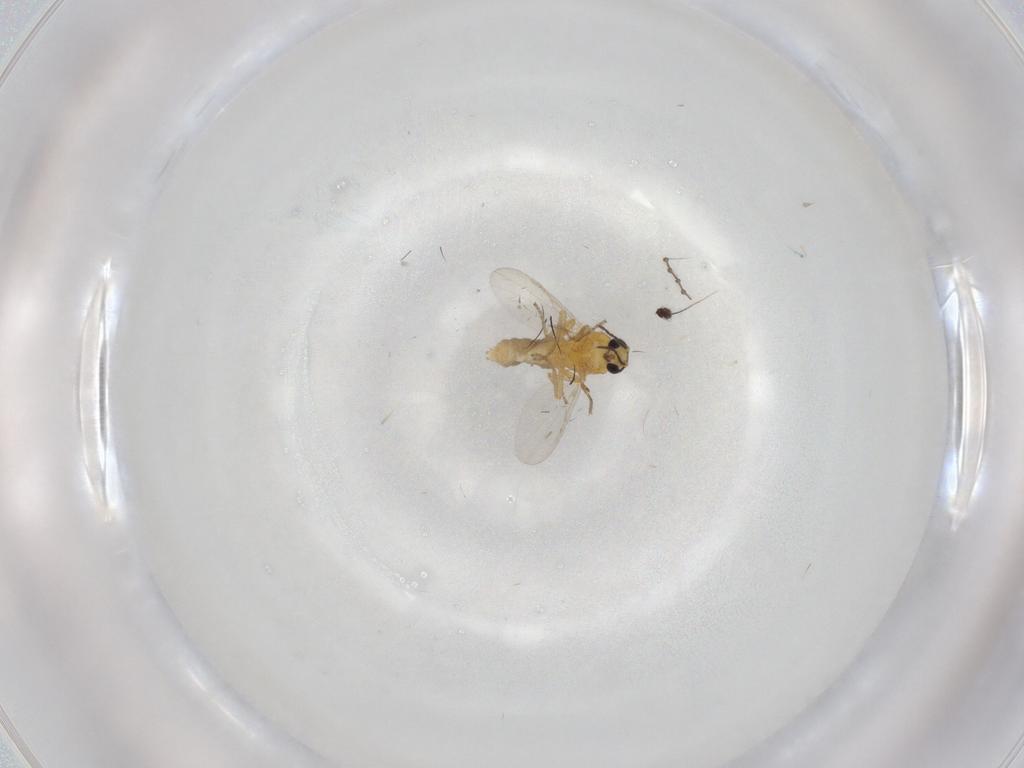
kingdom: Animalia
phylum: Arthropoda
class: Insecta
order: Diptera
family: Ceratopogonidae
